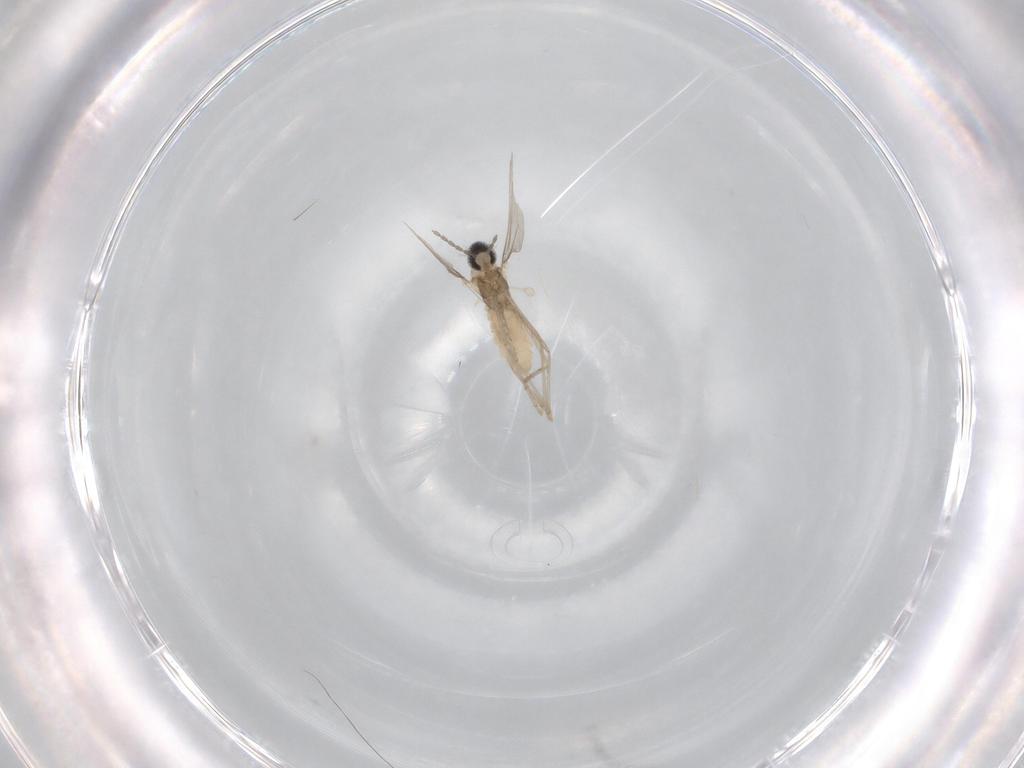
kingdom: Animalia
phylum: Arthropoda
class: Insecta
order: Diptera
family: Cecidomyiidae
